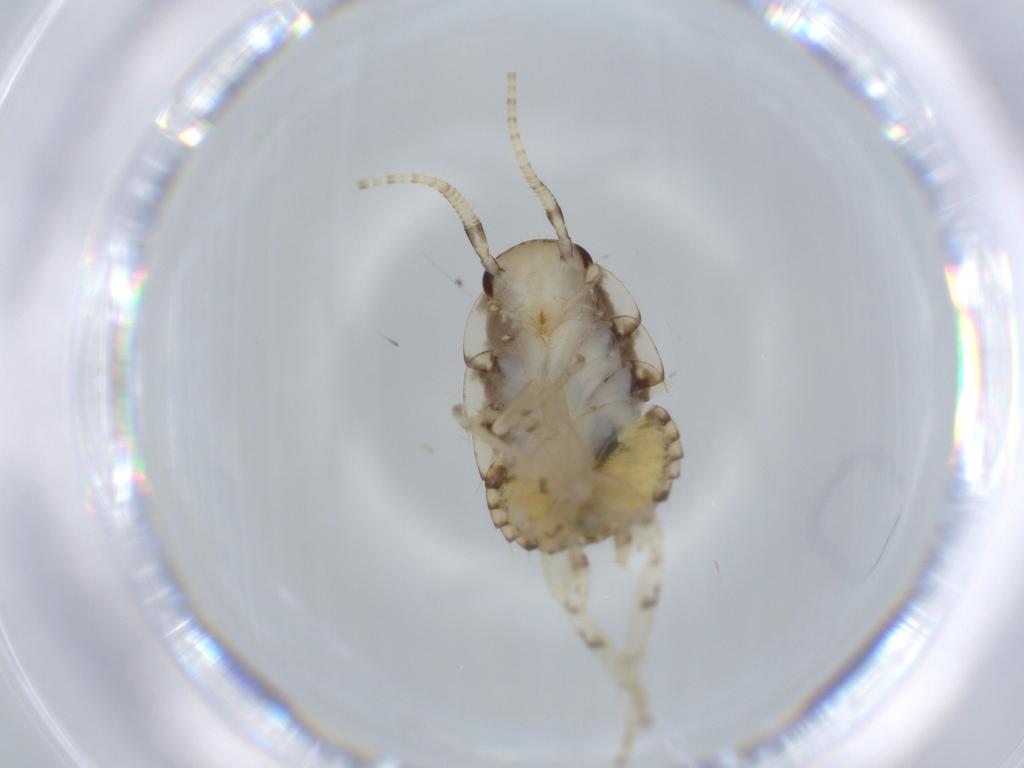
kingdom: Animalia
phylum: Arthropoda
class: Insecta
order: Blattodea
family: Ectobiidae
